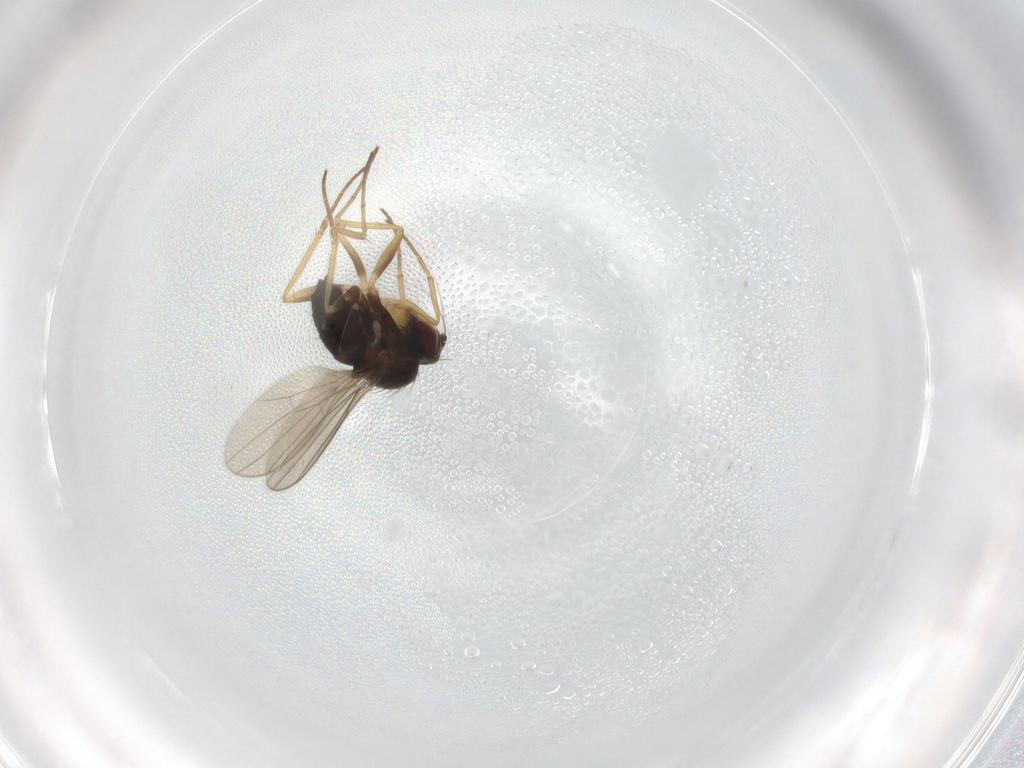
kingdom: Animalia
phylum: Arthropoda
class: Insecta
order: Diptera
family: Dolichopodidae
